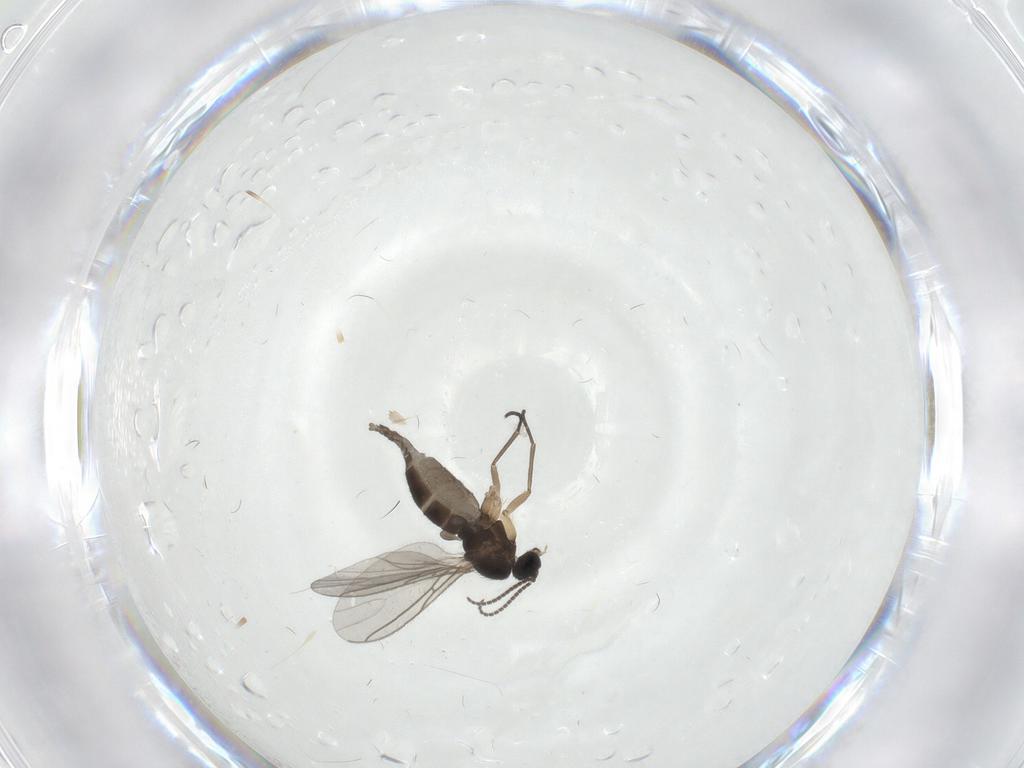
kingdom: Animalia
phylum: Arthropoda
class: Insecta
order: Diptera
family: Sciaridae
